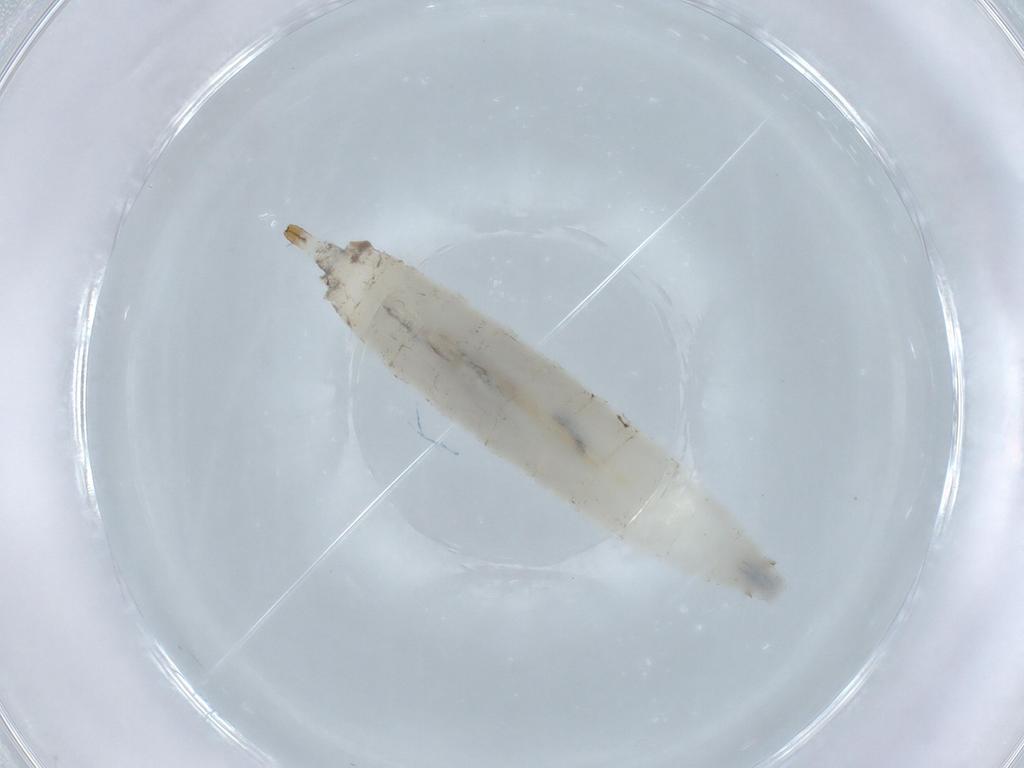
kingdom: Animalia
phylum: Arthropoda
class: Insecta
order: Diptera
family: Drosophilidae
